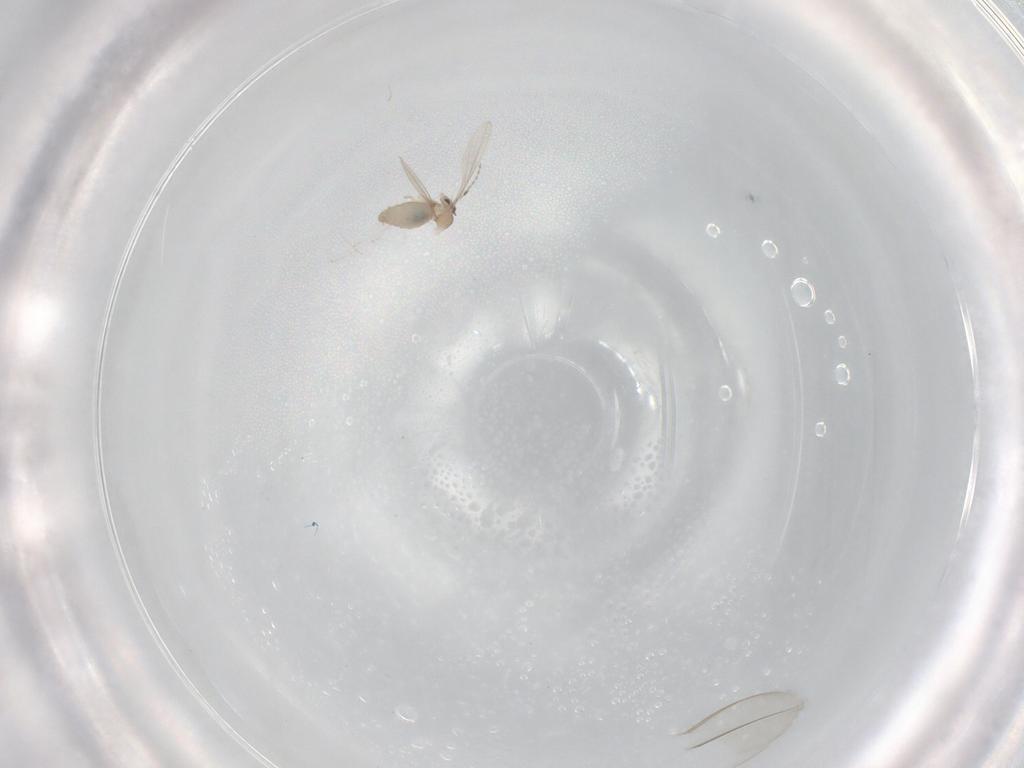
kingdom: Animalia
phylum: Arthropoda
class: Insecta
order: Diptera
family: Cecidomyiidae
